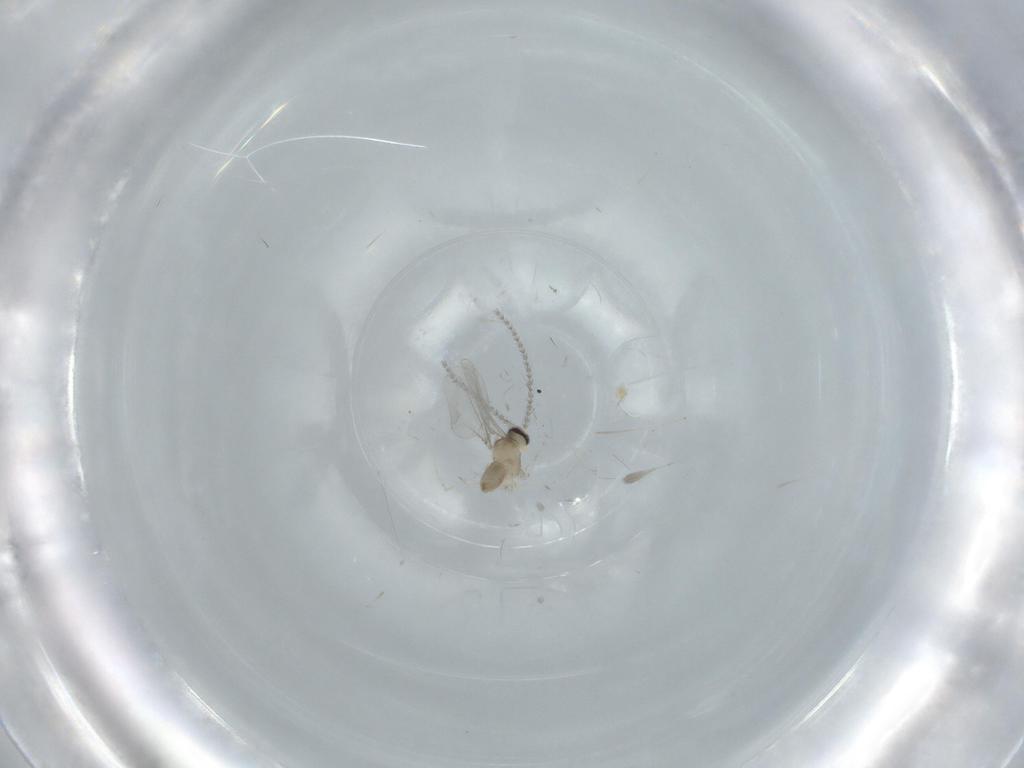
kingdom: Animalia
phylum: Arthropoda
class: Insecta
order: Diptera
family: Cecidomyiidae
